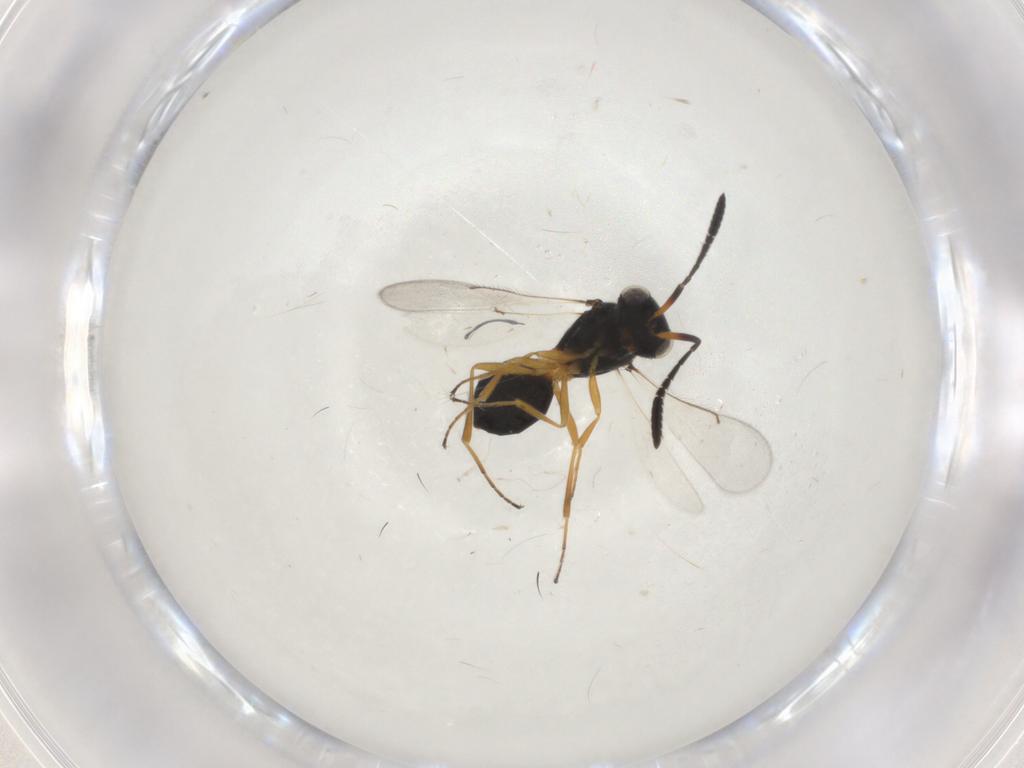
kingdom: Animalia
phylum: Arthropoda
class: Insecta
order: Hymenoptera
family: Scelionidae
